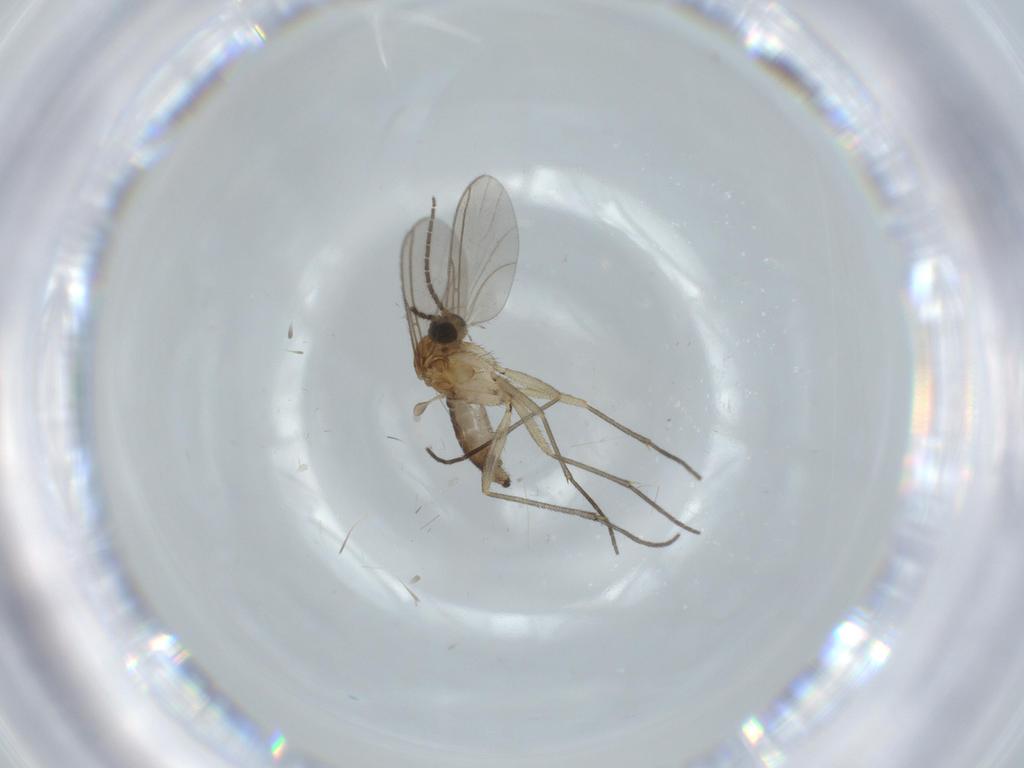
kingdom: Animalia
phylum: Arthropoda
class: Insecta
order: Diptera
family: Sciaridae
